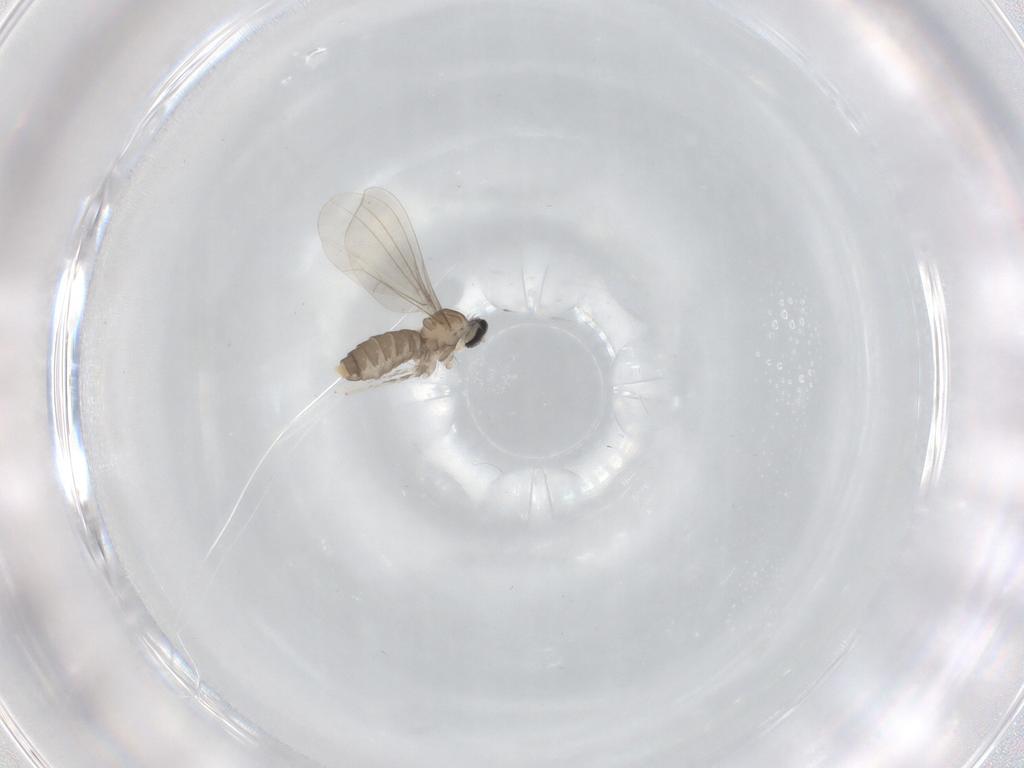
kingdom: Animalia
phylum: Arthropoda
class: Insecta
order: Diptera
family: Cecidomyiidae
